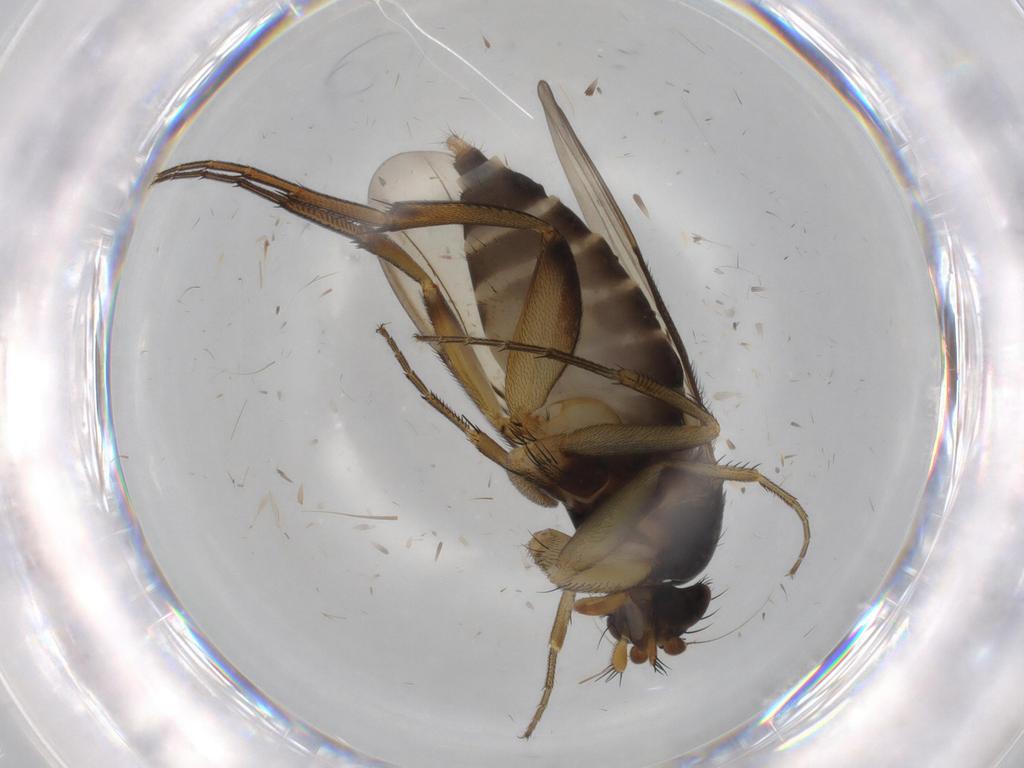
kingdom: Animalia
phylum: Arthropoda
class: Insecta
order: Diptera
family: Phoridae
